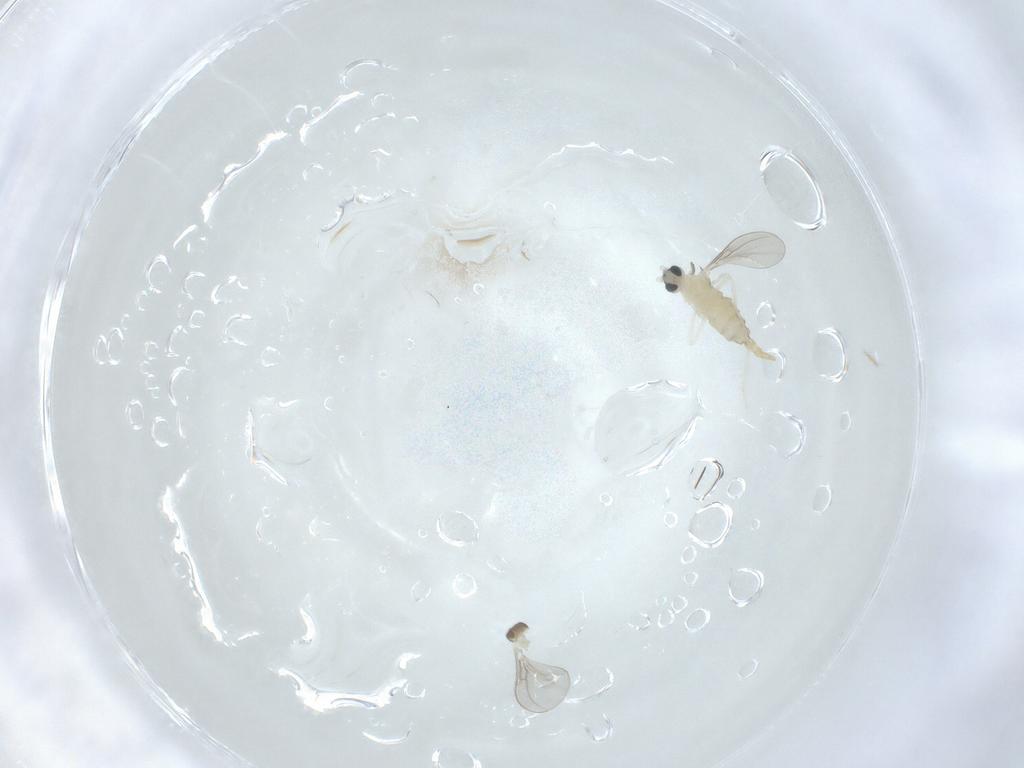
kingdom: Animalia
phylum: Arthropoda
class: Insecta
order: Diptera
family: Cecidomyiidae
